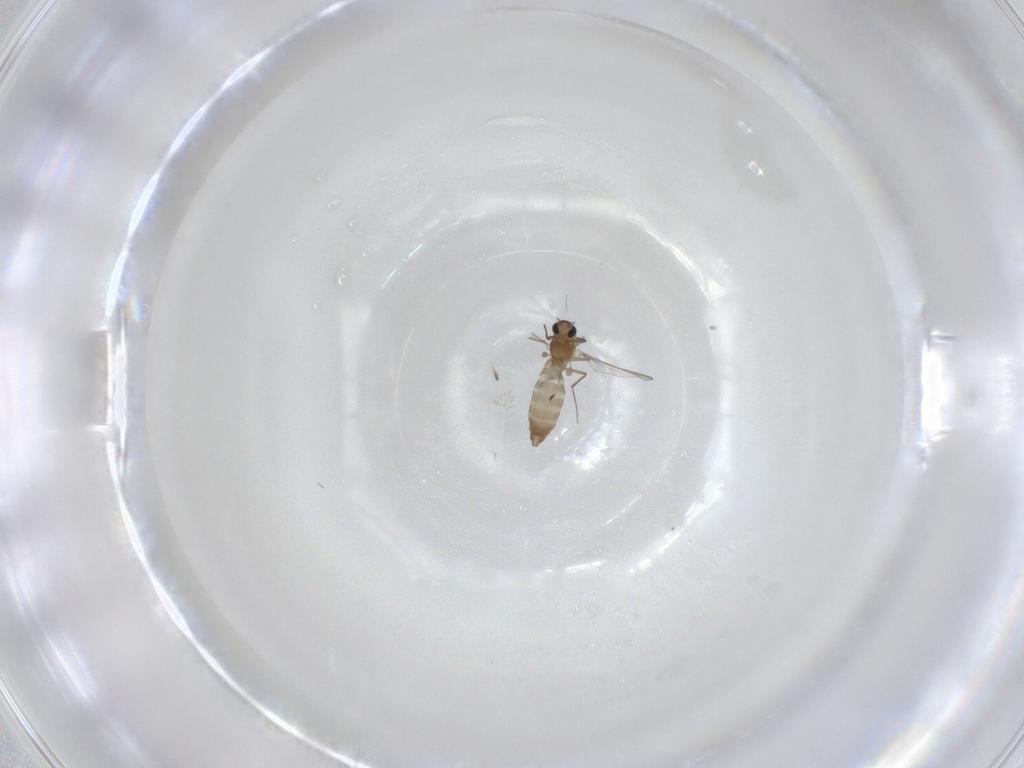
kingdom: Animalia
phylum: Arthropoda
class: Insecta
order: Diptera
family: Chironomidae
